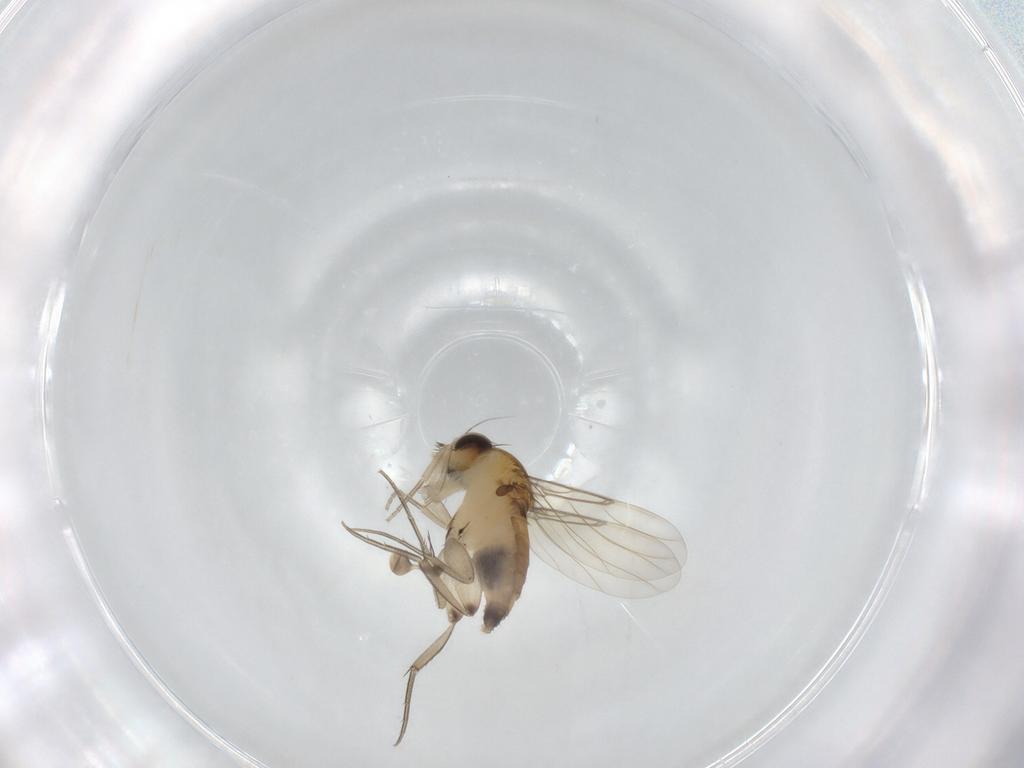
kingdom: Animalia
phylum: Arthropoda
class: Insecta
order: Diptera
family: Phoridae
